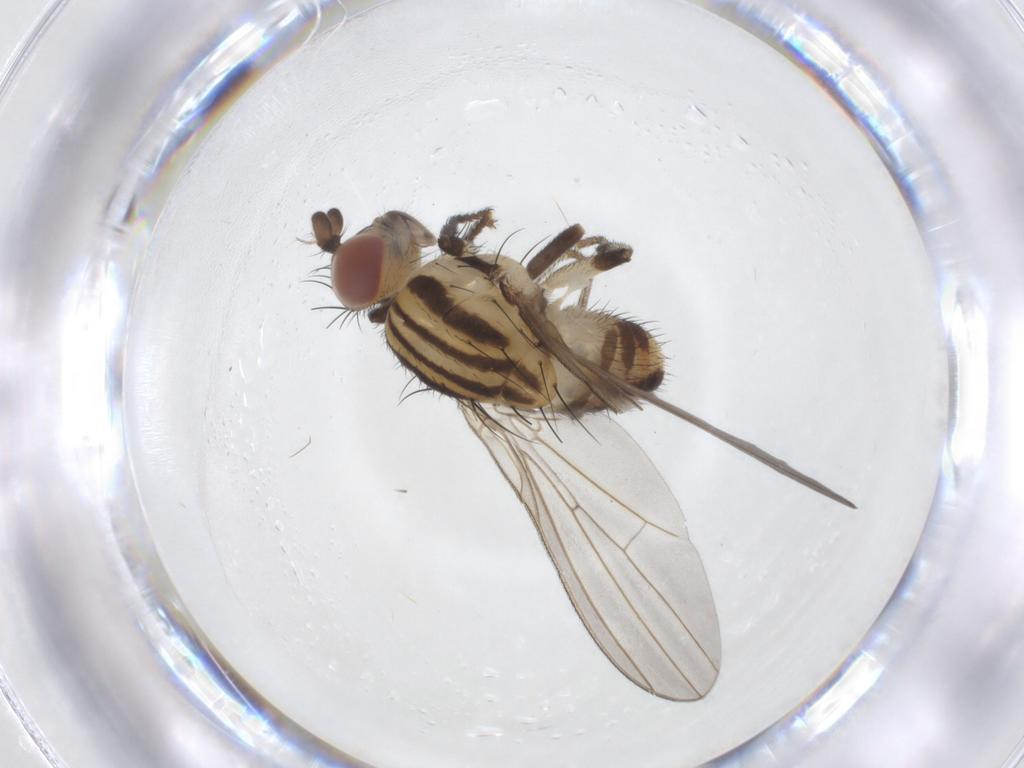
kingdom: Animalia
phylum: Arthropoda
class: Insecta
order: Diptera
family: Lauxaniidae
